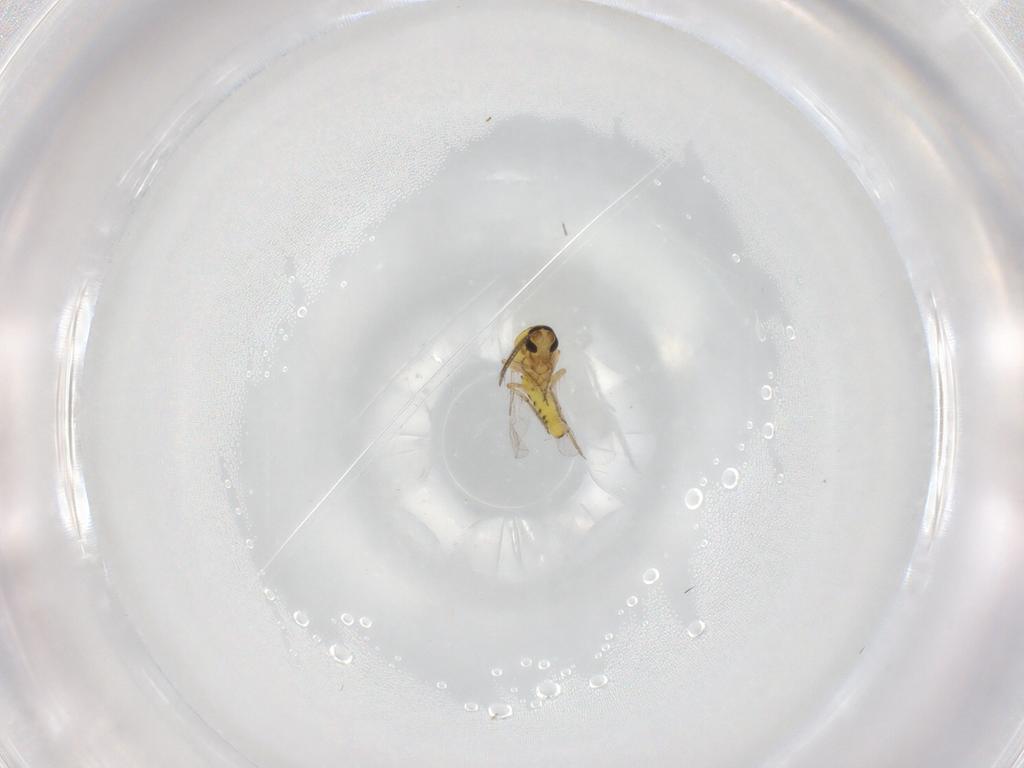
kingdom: Animalia
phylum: Arthropoda
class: Insecta
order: Diptera
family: Ceratopogonidae
